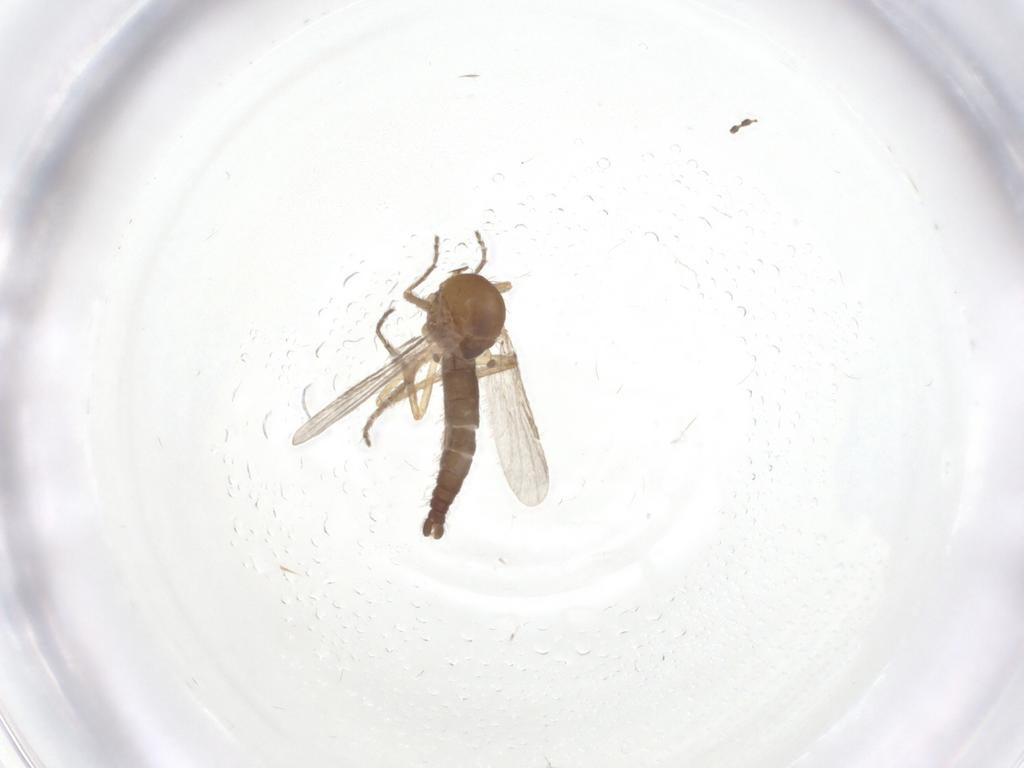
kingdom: Animalia
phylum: Arthropoda
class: Insecta
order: Diptera
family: Ceratopogonidae
